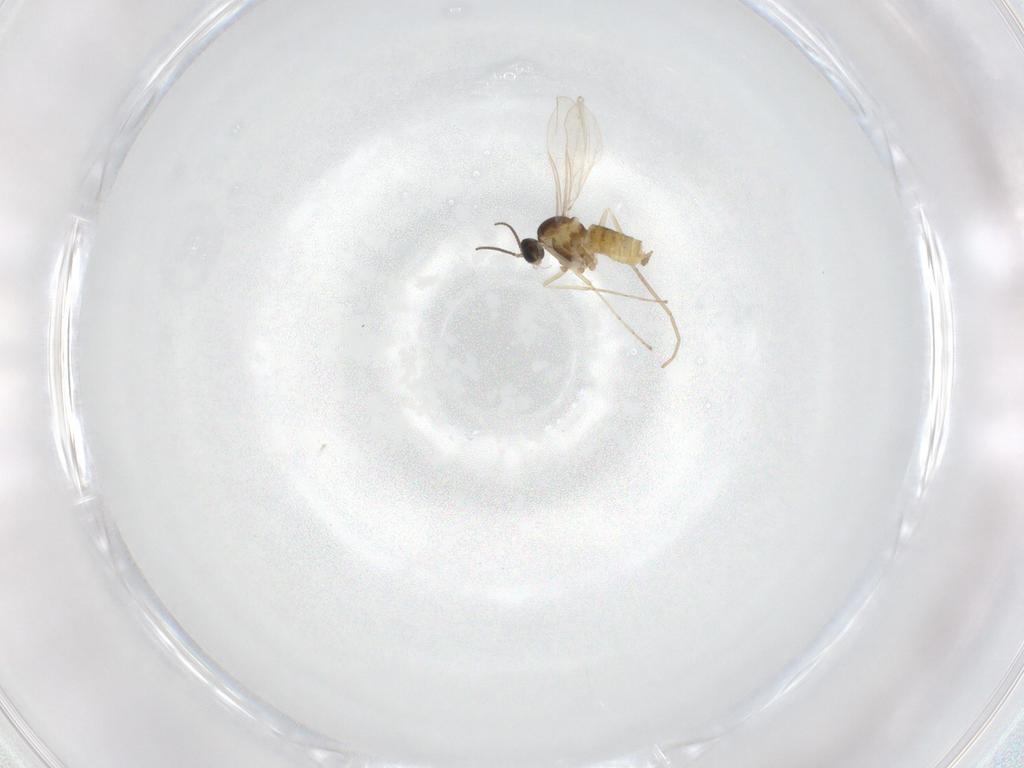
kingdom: Animalia
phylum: Arthropoda
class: Insecta
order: Diptera
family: Cecidomyiidae
